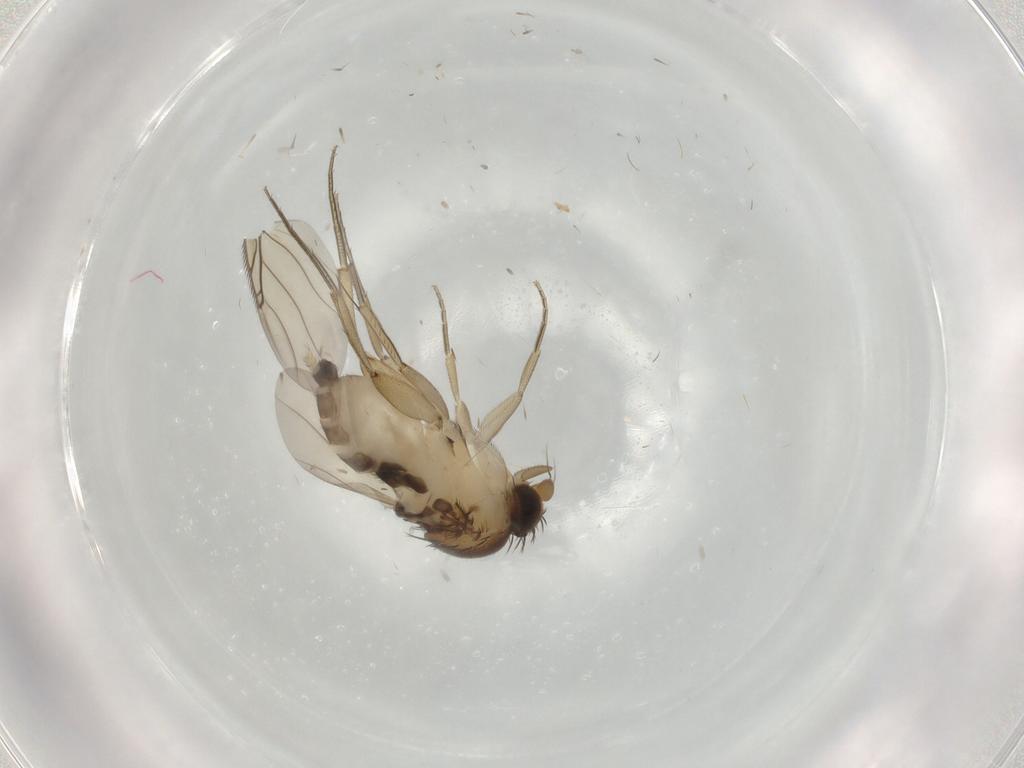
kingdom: Animalia
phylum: Arthropoda
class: Insecta
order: Diptera
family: Phoridae
